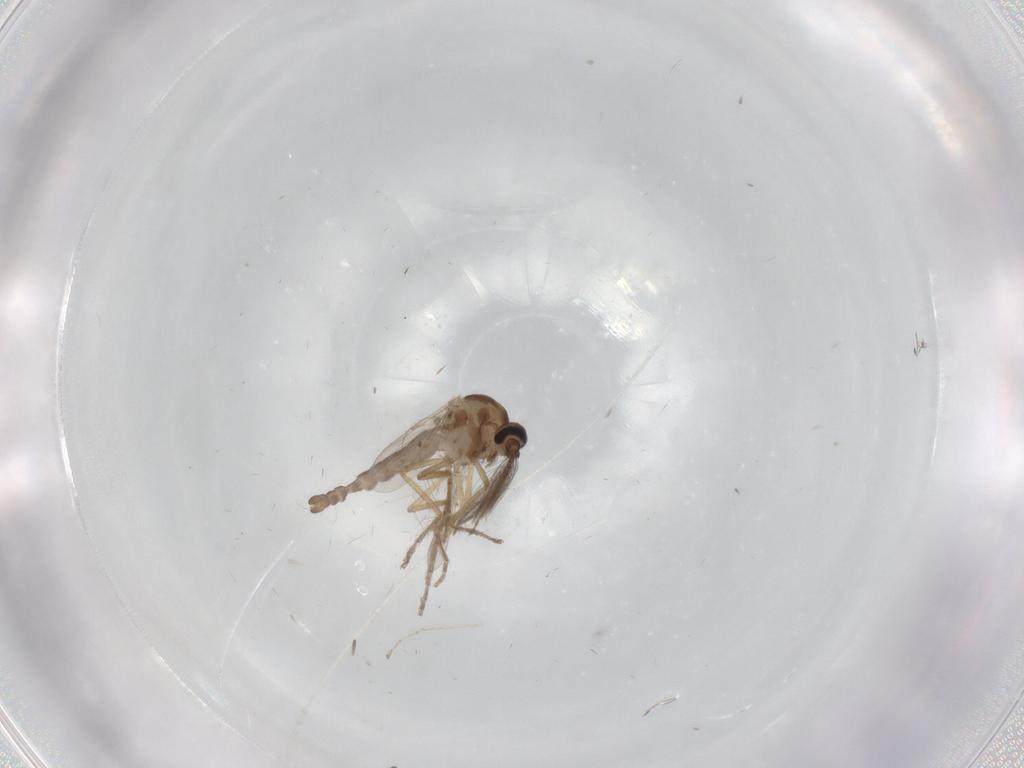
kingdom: Animalia
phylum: Arthropoda
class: Insecta
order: Diptera
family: Ceratopogonidae
